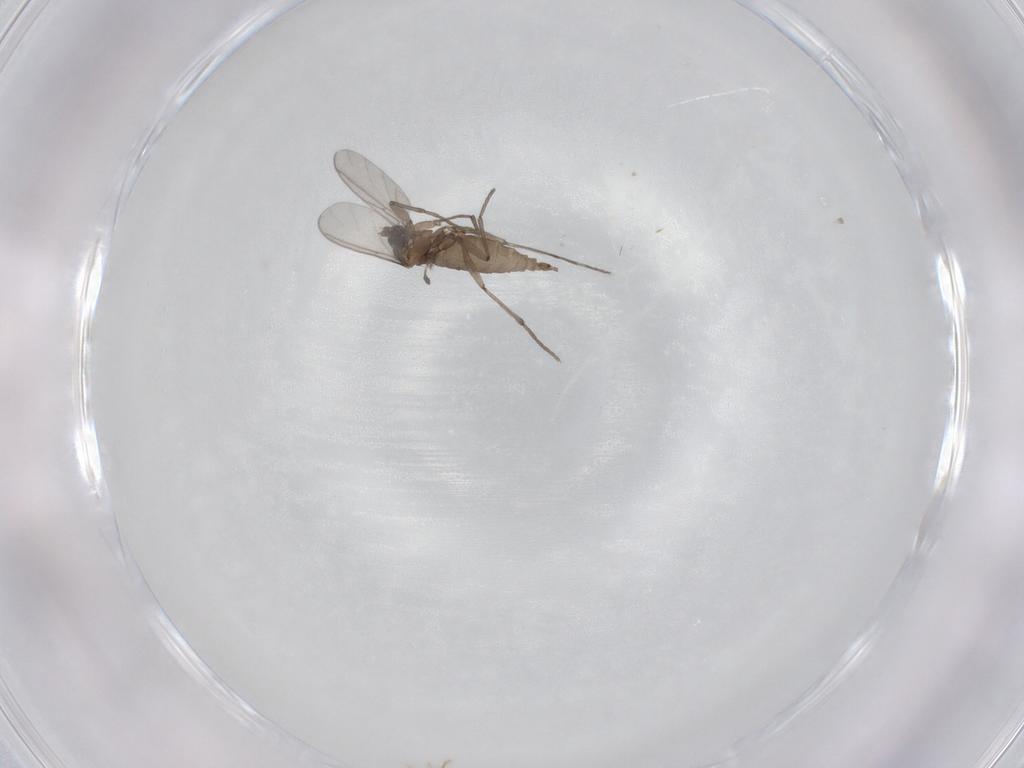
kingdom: Animalia
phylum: Arthropoda
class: Insecta
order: Diptera
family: Sciaridae
